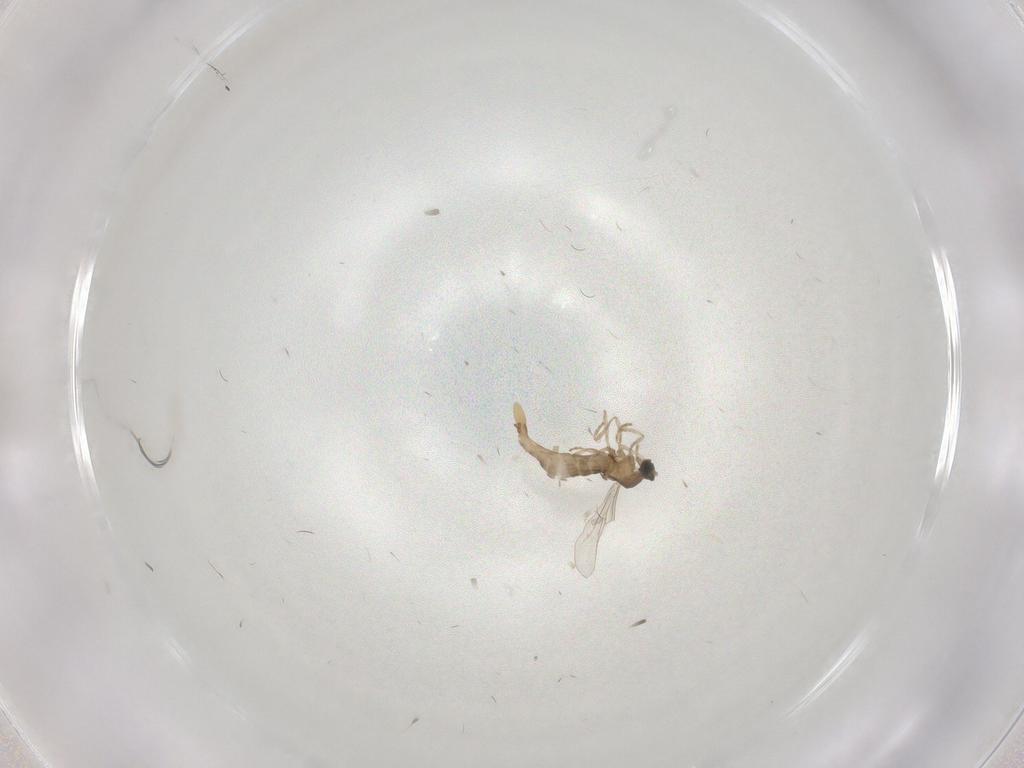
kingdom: Animalia
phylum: Arthropoda
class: Insecta
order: Diptera
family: Cecidomyiidae
